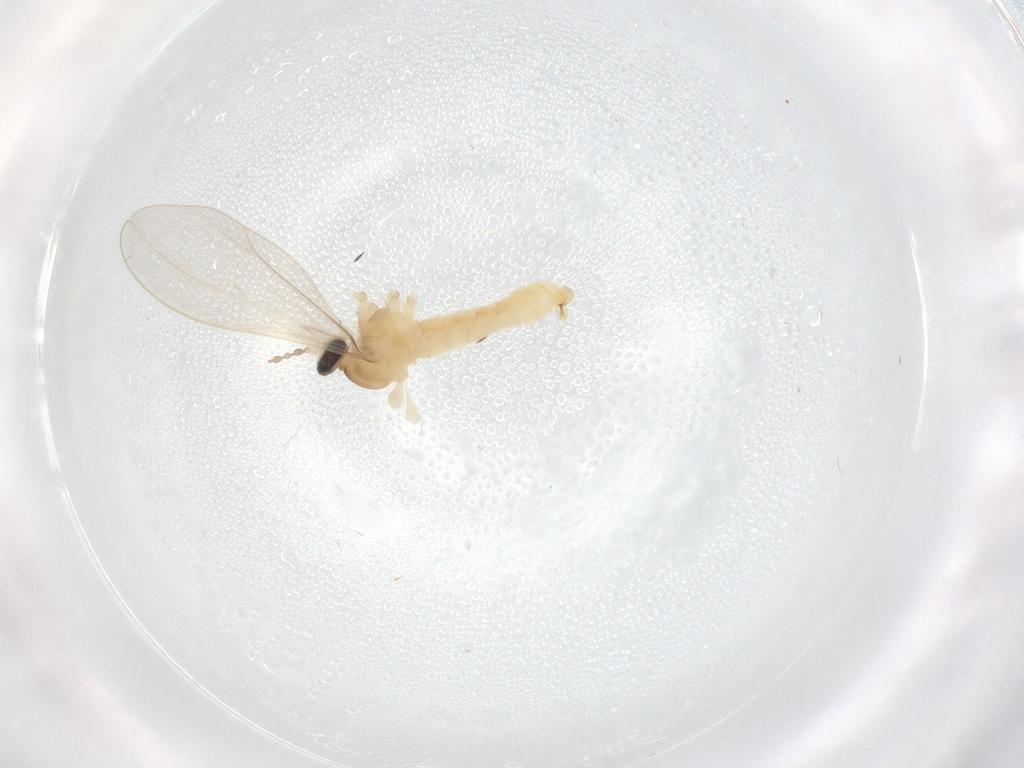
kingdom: Animalia
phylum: Arthropoda
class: Insecta
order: Diptera
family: Cecidomyiidae
